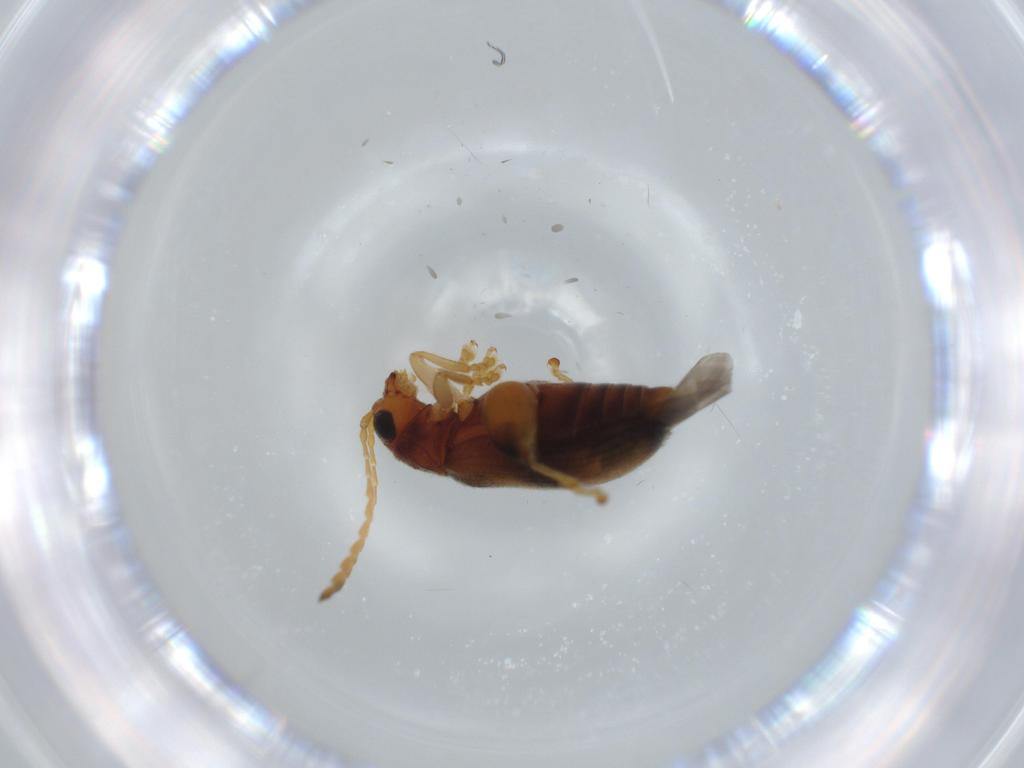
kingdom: Animalia
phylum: Arthropoda
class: Insecta
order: Coleoptera
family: Chrysomelidae
